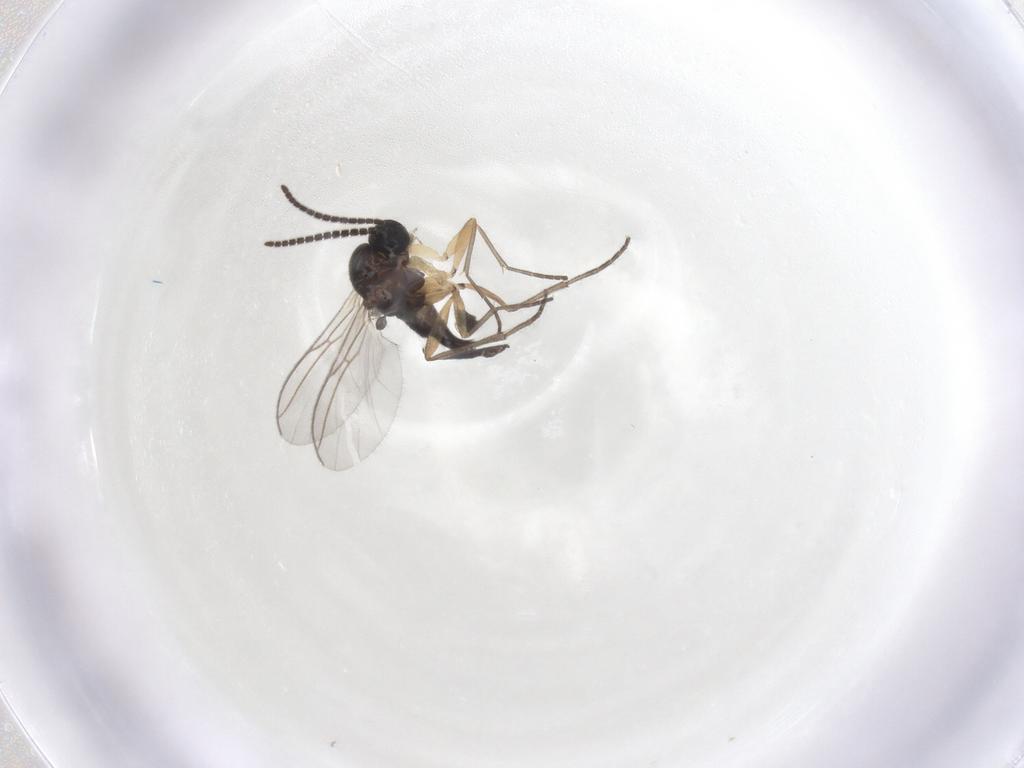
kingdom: Animalia
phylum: Arthropoda
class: Insecta
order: Diptera
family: Sciaridae
